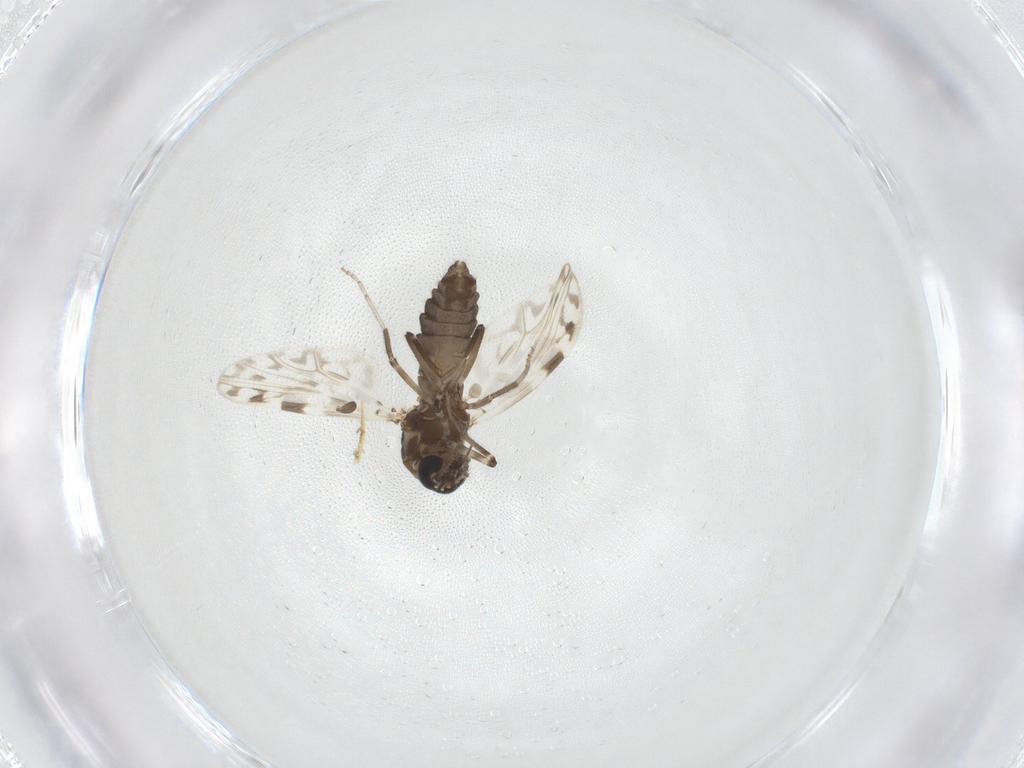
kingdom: Animalia
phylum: Arthropoda
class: Insecta
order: Diptera
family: Ceratopogonidae
